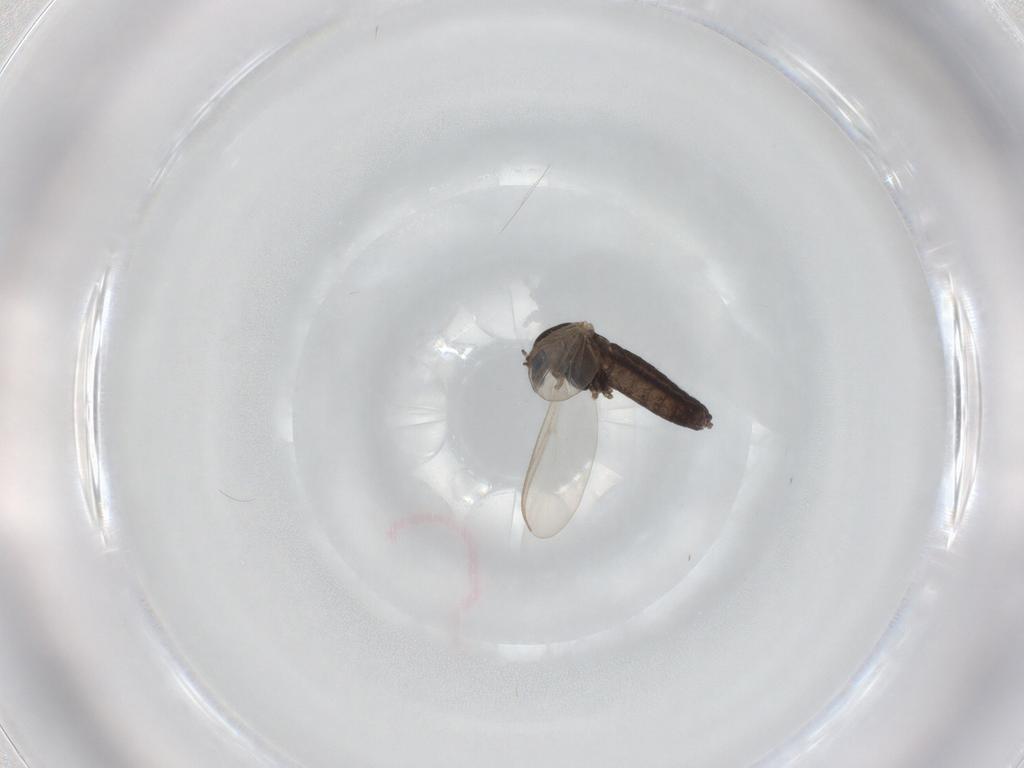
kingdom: Animalia
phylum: Arthropoda
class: Insecta
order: Diptera
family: Chironomidae
